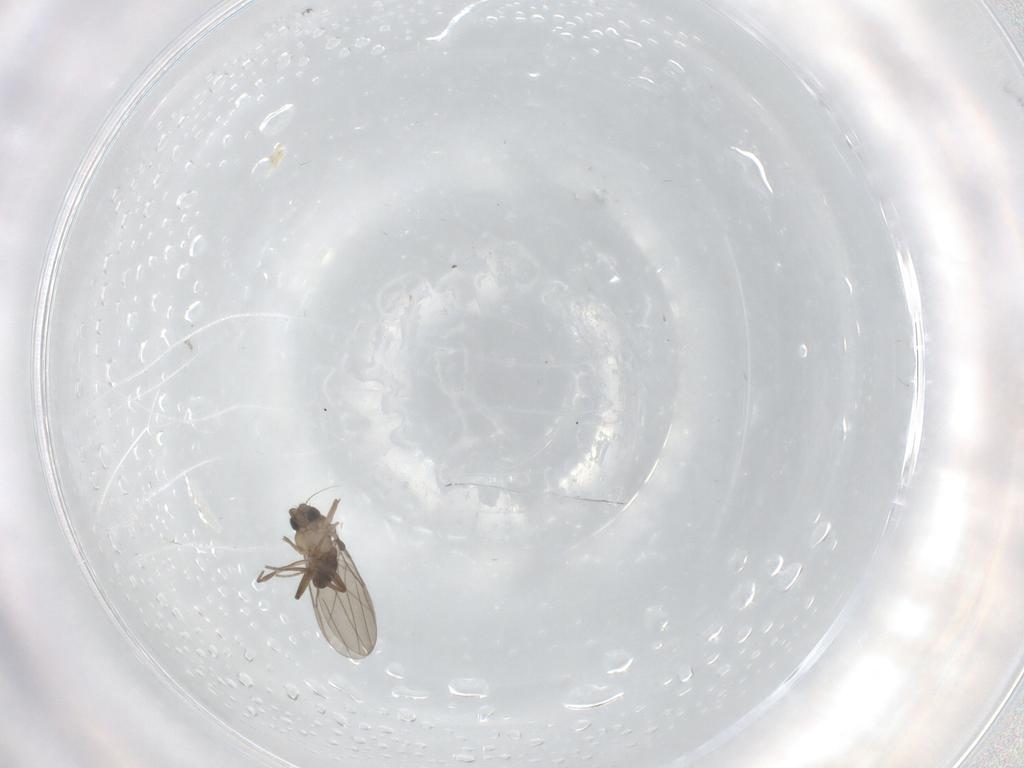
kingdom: Animalia
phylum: Arthropoda
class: Insecta
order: Diptera
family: Phoridae
